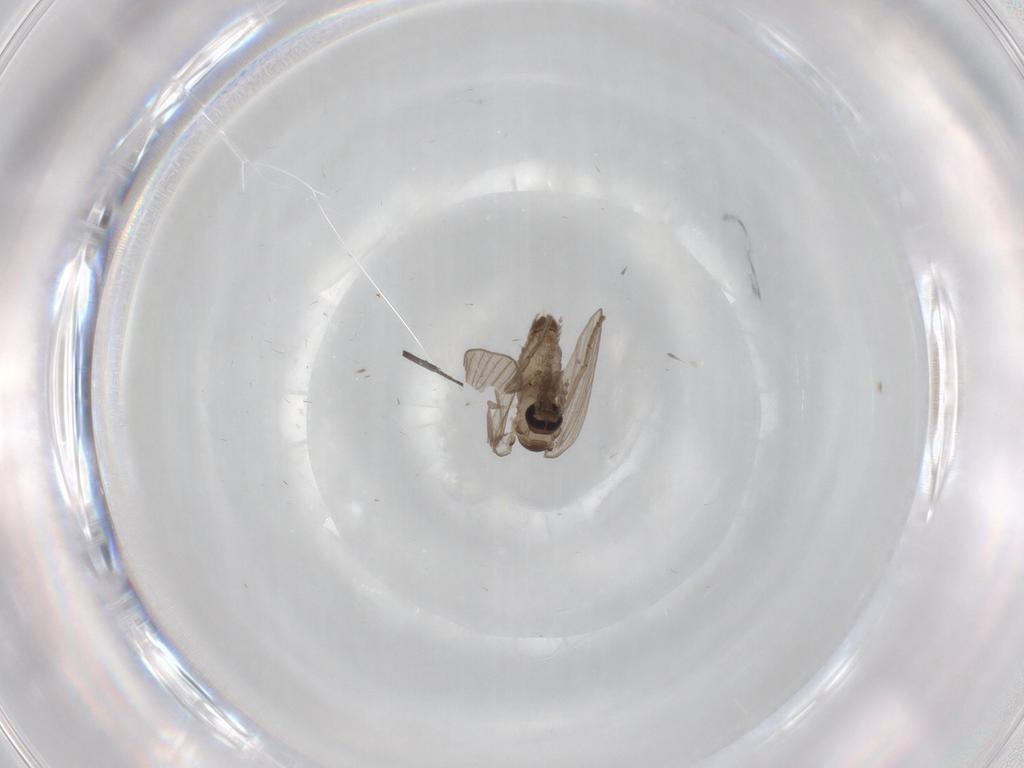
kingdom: Animalia
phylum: Arthropoda
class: Insecta
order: Diptera
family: Psychodidae
